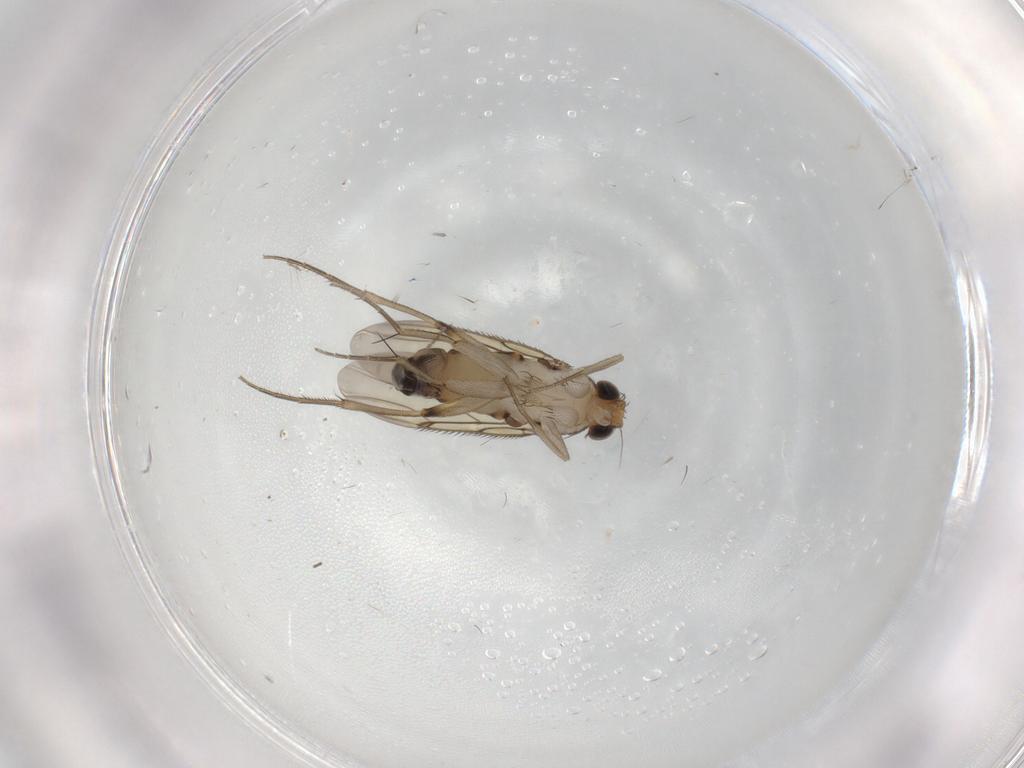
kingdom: Animalia
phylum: Arthropoda
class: Insecta
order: Diptera
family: Phoridae
